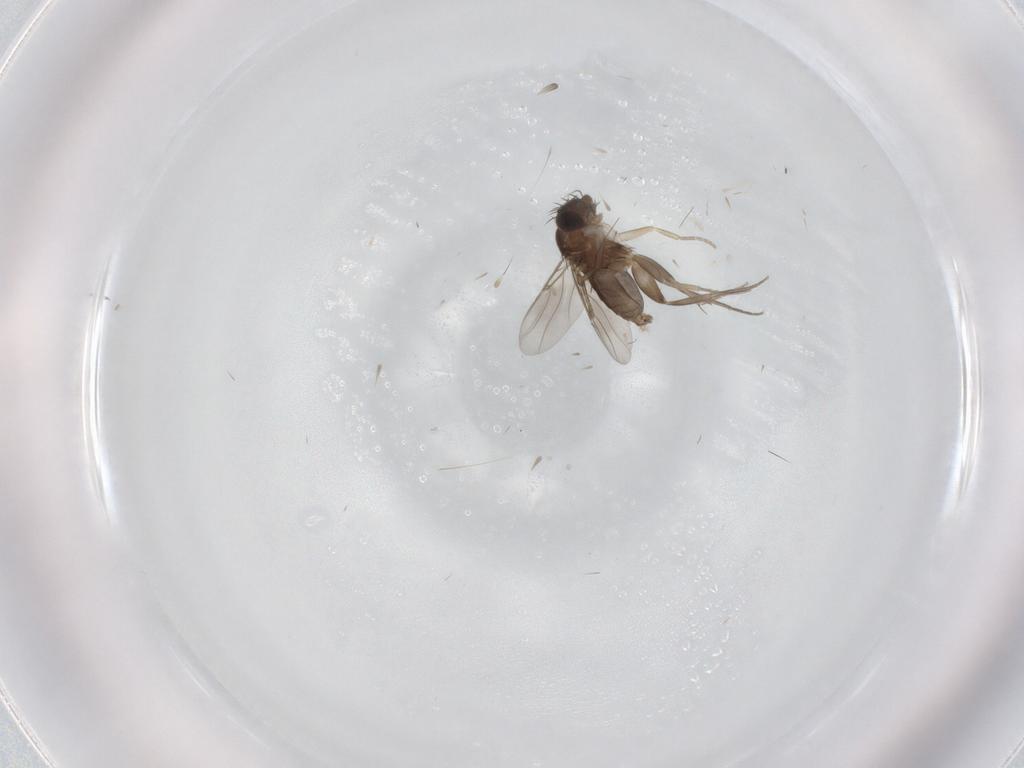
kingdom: Animalia
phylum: Arthropoda
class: Insecta
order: Diptera
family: Phoridae
